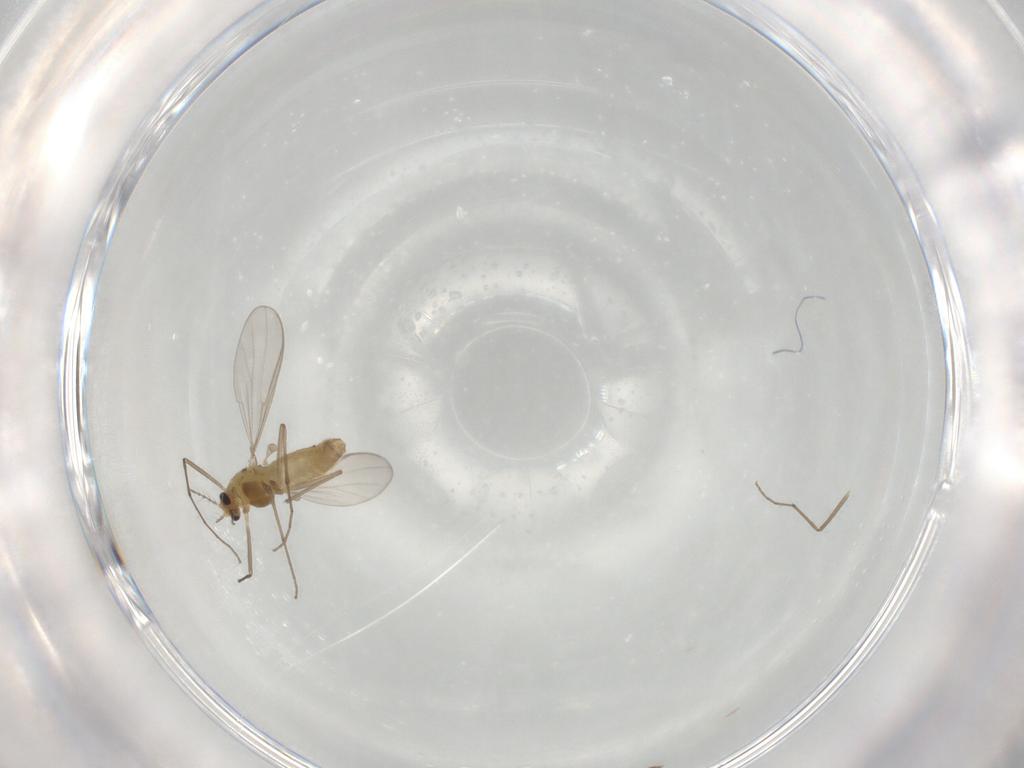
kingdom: Animalia
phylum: Arthropoda
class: Insecta
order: Diptera
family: Chironomidae
